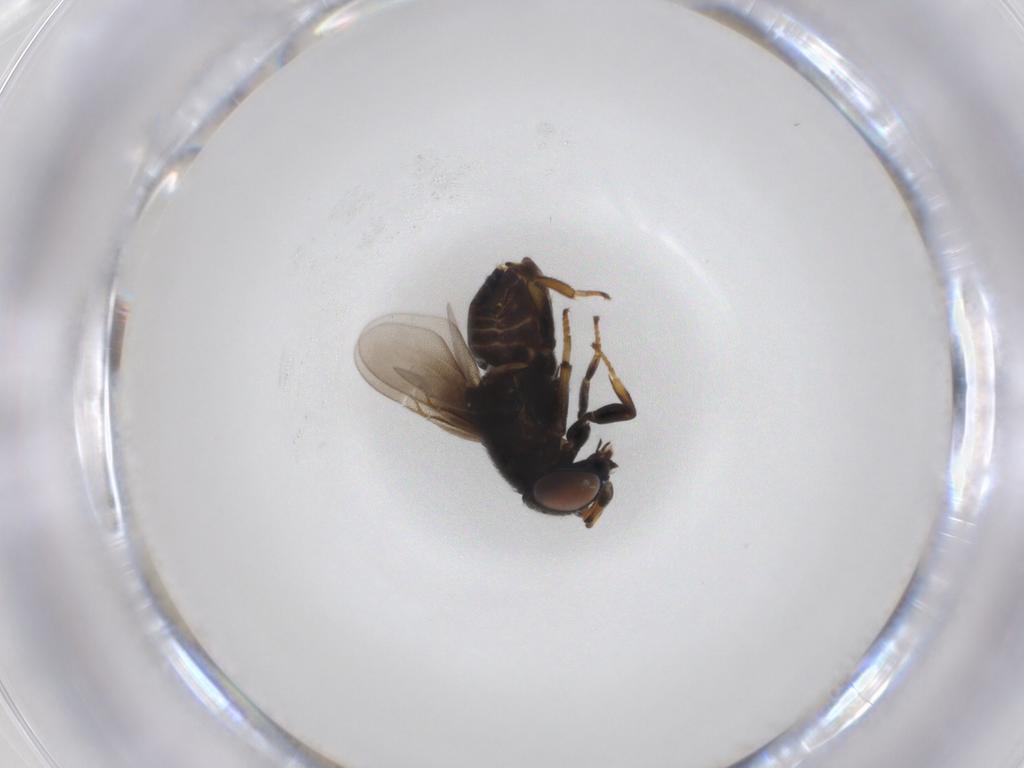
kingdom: Animalia
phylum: Arthropoda
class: Insecta
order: Hymenoptera
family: Encyrtidae
